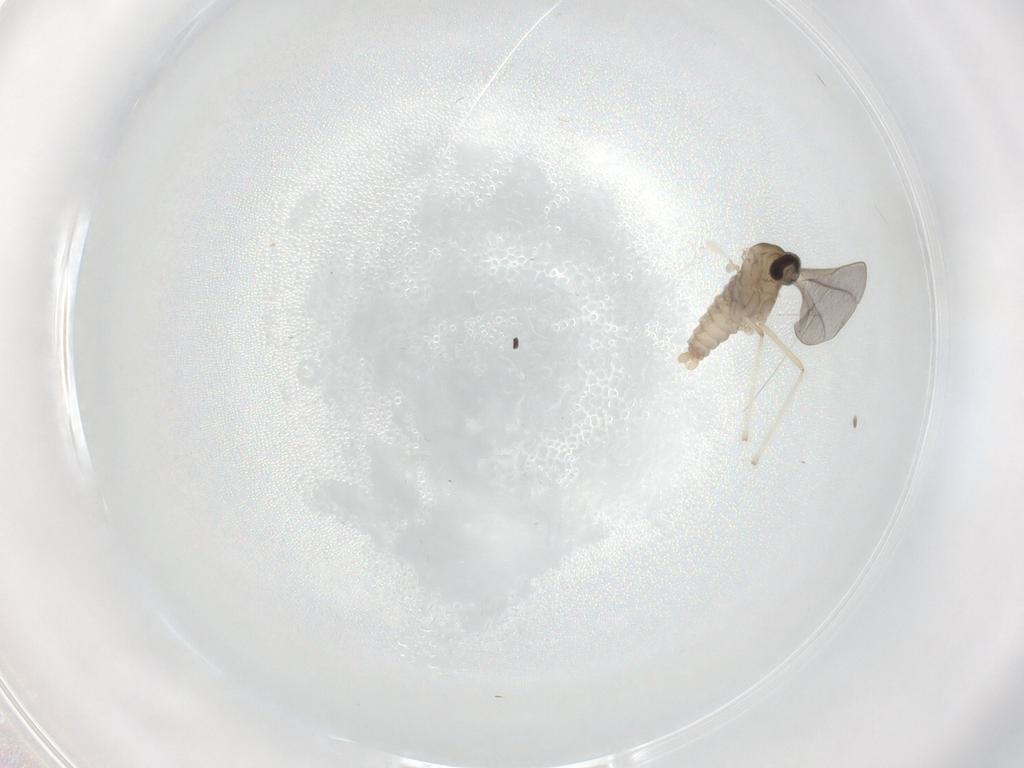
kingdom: Animalia
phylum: Arthropoda
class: Insecta
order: Diptera
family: Cecidomyiidae
